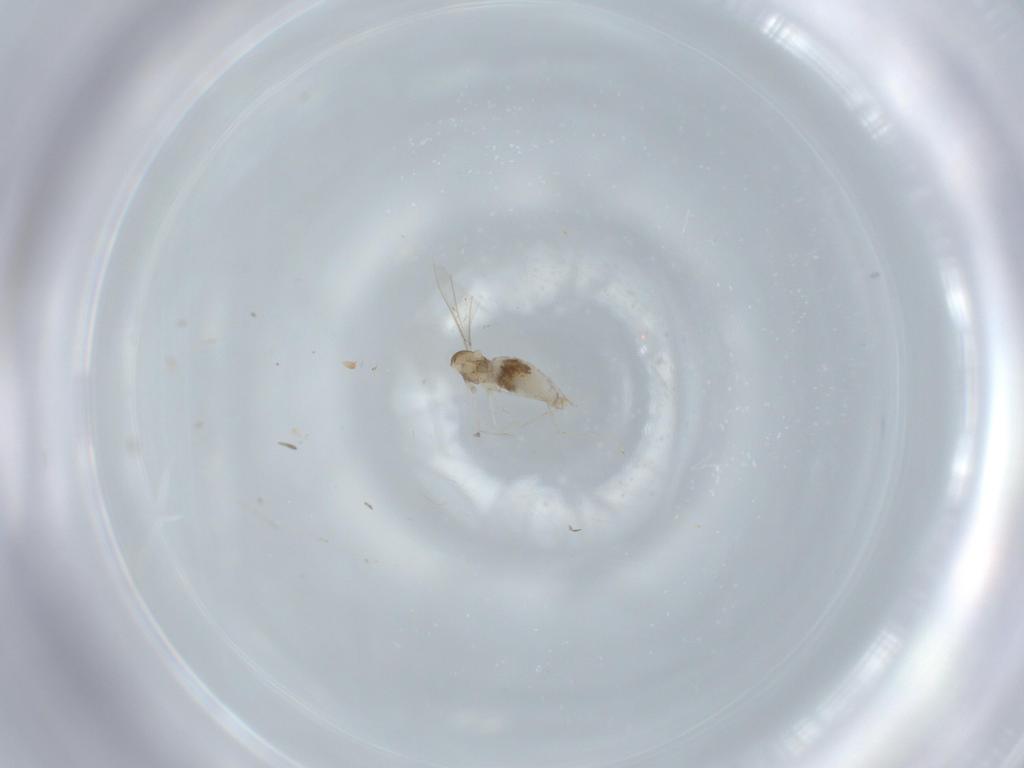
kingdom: Animalia
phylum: Arthropoda
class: Insecta
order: Diptera
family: Cecidomyiidae
